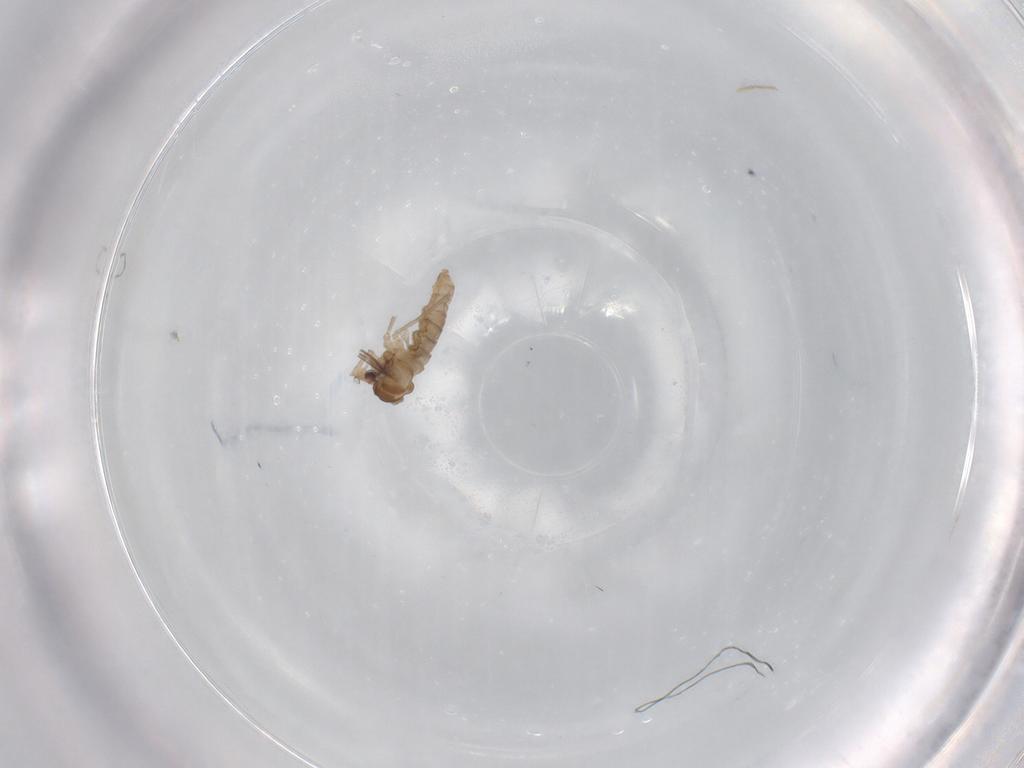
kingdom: Animalia
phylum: Arthropoda
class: Insecta
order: Diptera
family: Cecidomyiidae
